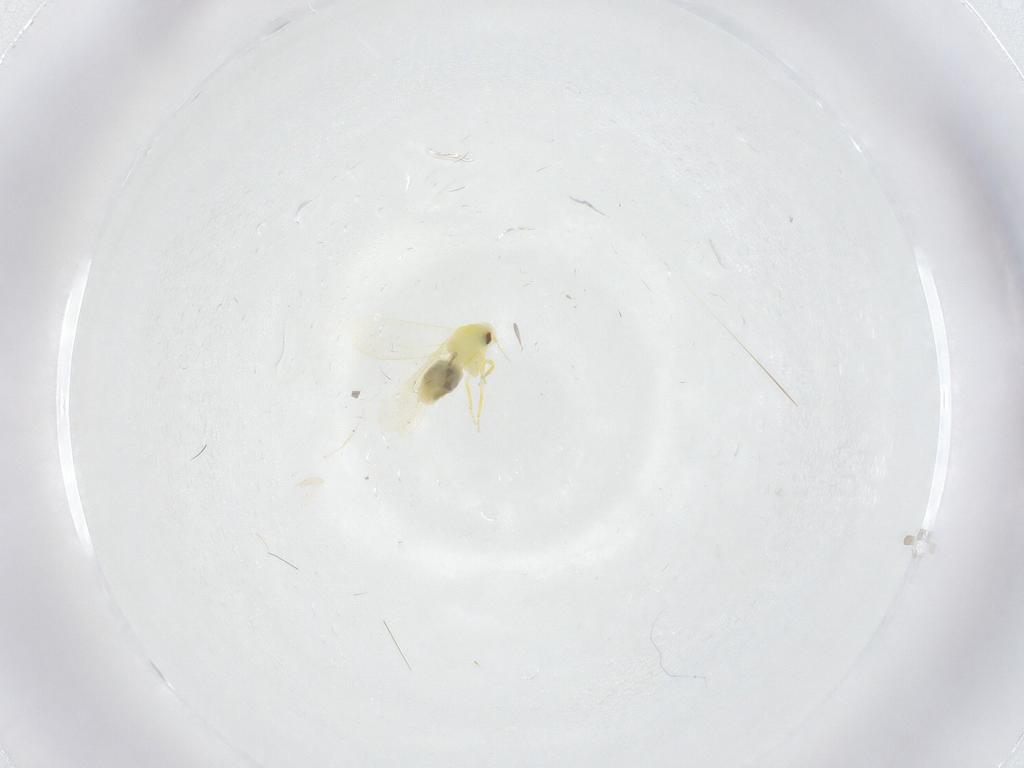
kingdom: Animalia
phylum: Arthropoda
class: Insecta
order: Hemiptera
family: Aleyrodidae
